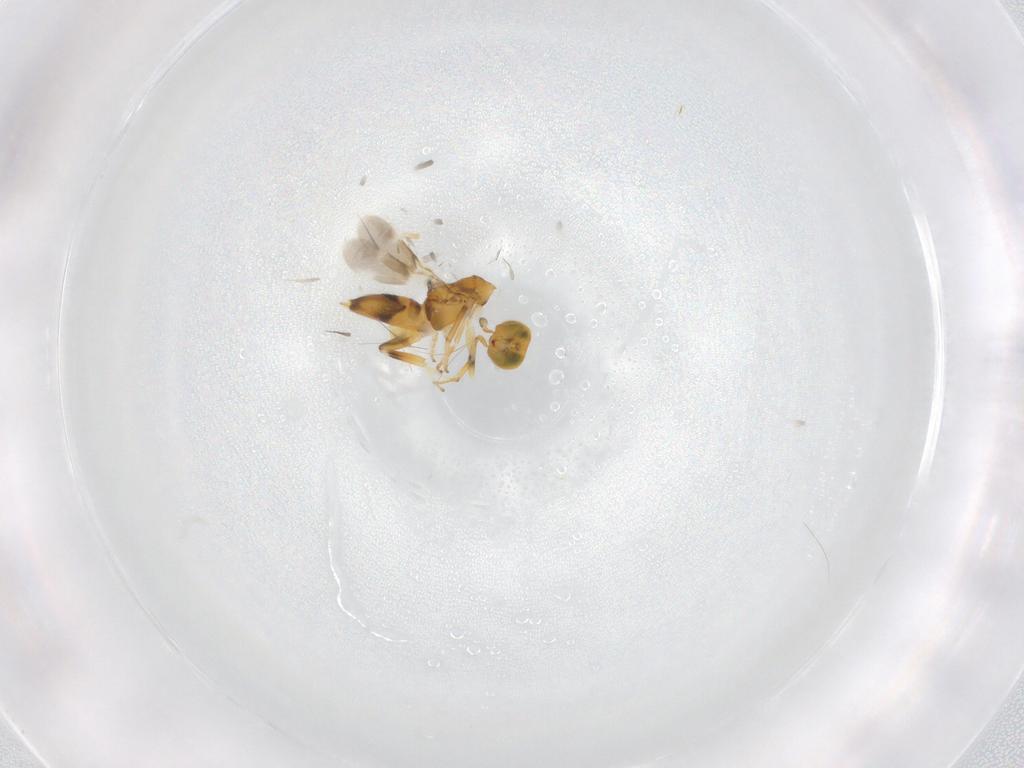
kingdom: Animalia
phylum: Arthropoda
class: Insecta
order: Hymenoptera
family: Encyrtidae
